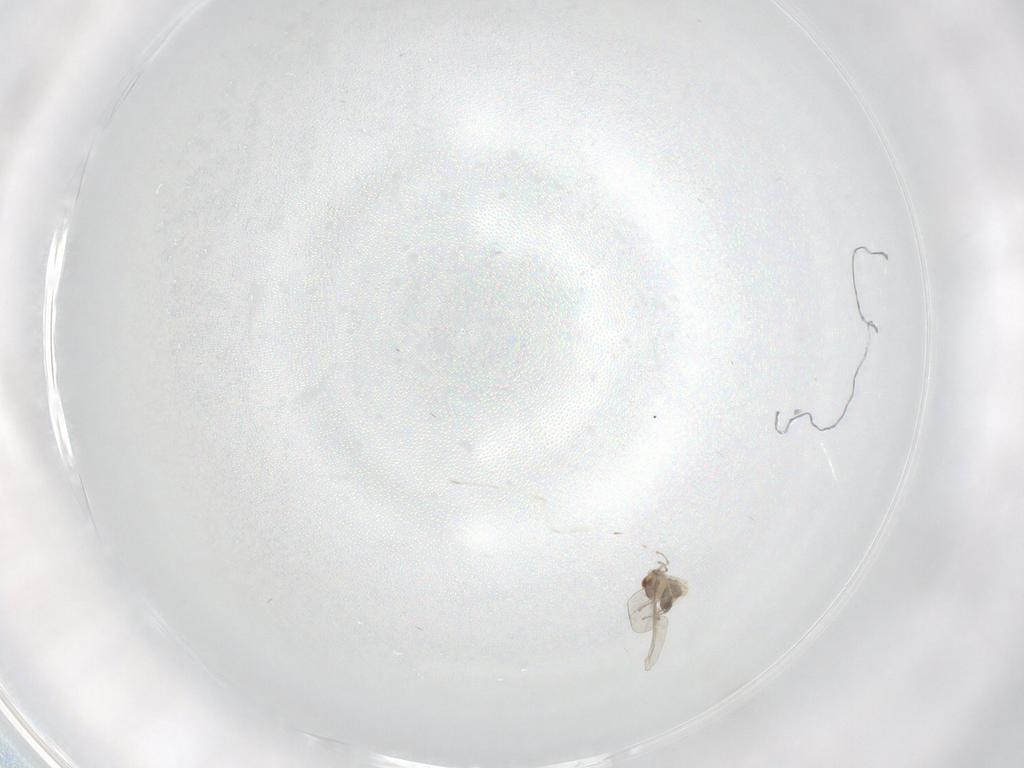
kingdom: Animalia
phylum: Arthropoda
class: Insecta
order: Diptera
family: Cecidomyiidae
